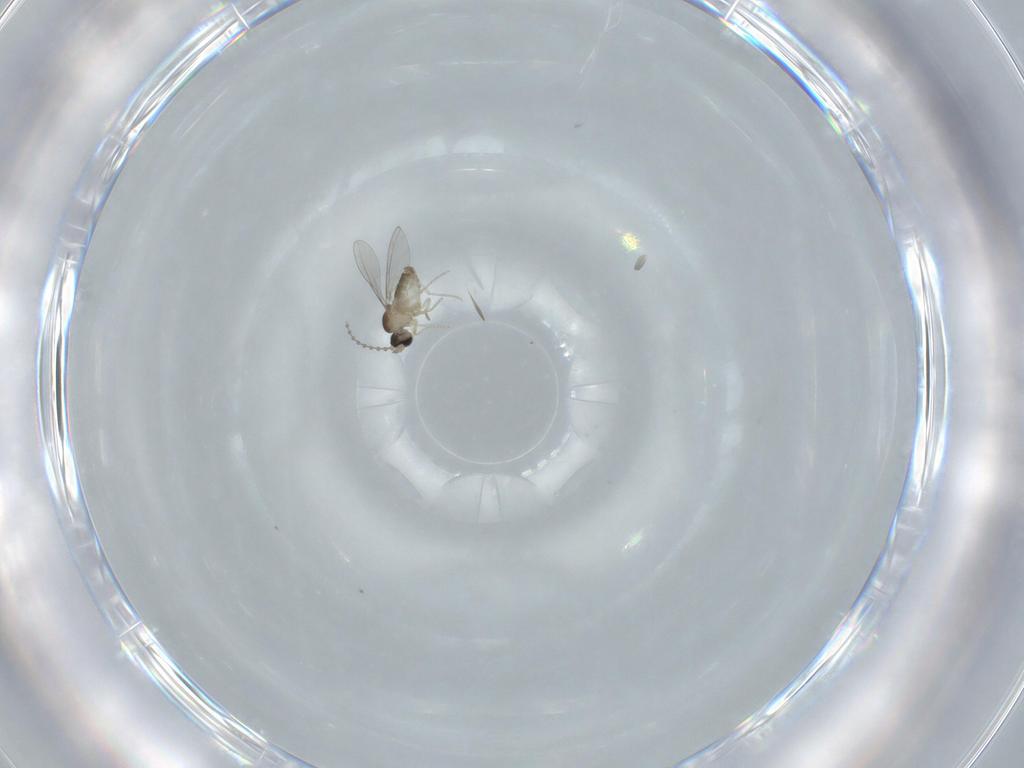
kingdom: Animalia
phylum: Arthropoda
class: Insecta
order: Diptera
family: Cecidomyiidae
